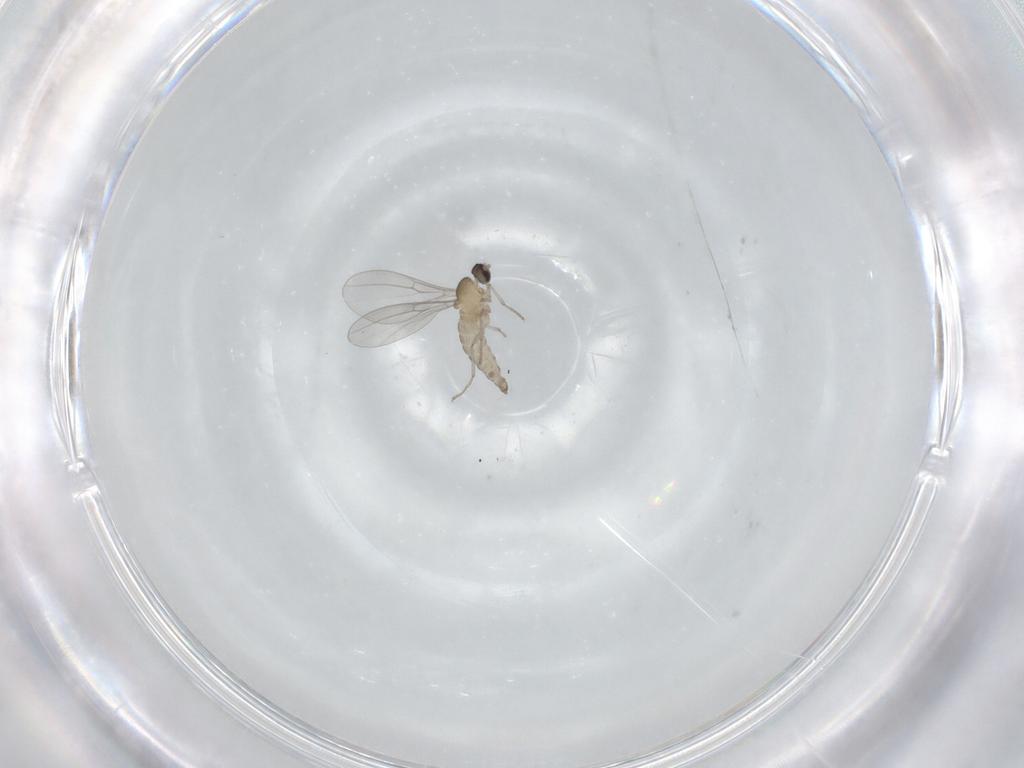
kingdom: Animalia
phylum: Arthropoda
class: Insecta
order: Diptera
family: Cecidomyiidae
